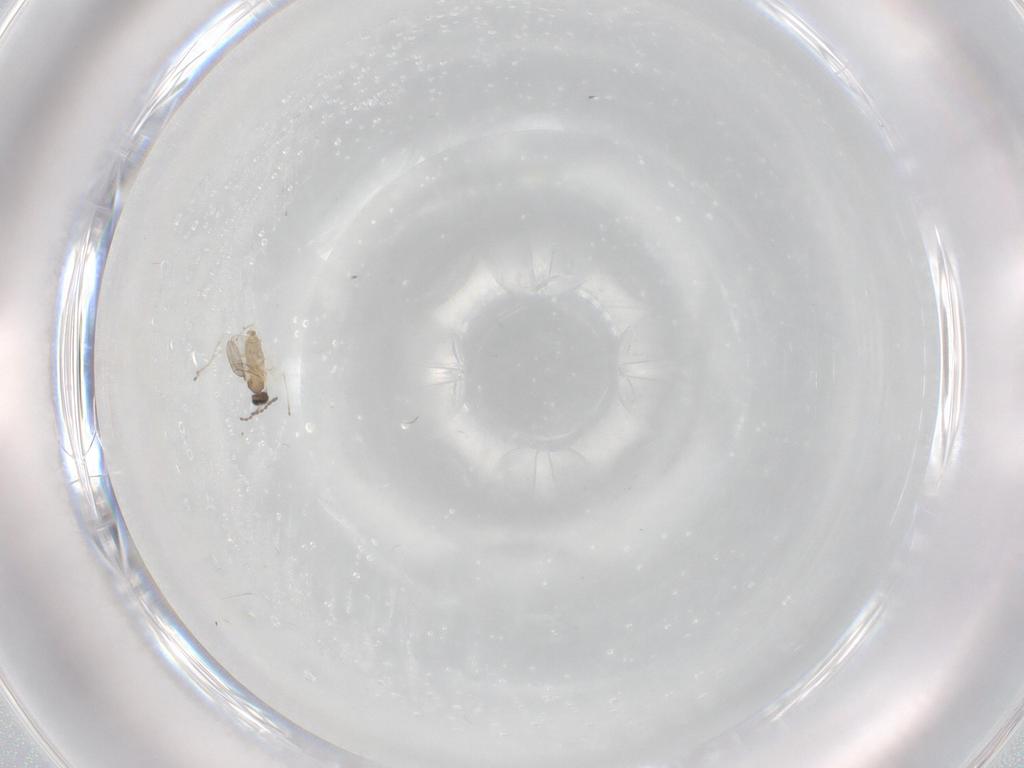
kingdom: Animalia
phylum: Arthropoda
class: Insecta
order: Diptera
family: Cecidomyiidae
